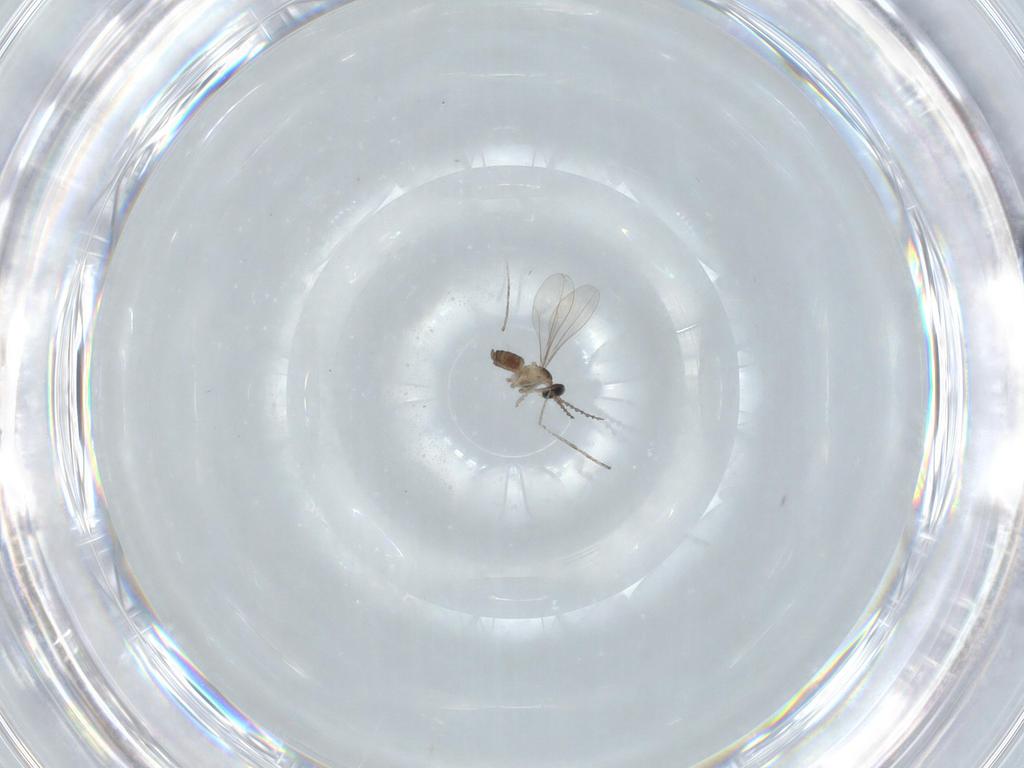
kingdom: Animalia
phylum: Arthropoda
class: Insecta
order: Diptera
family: Cecidomyiidae
